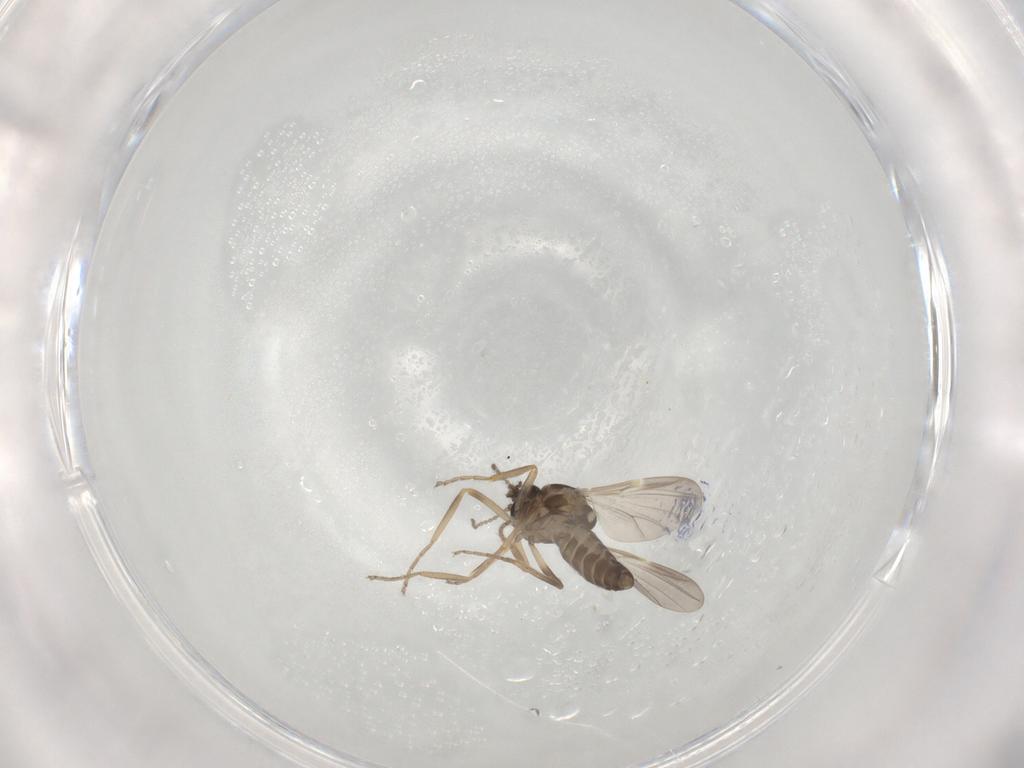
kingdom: Animalia
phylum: Arthropoda
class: Insecta
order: Diptera
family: Ceratopogonidae
